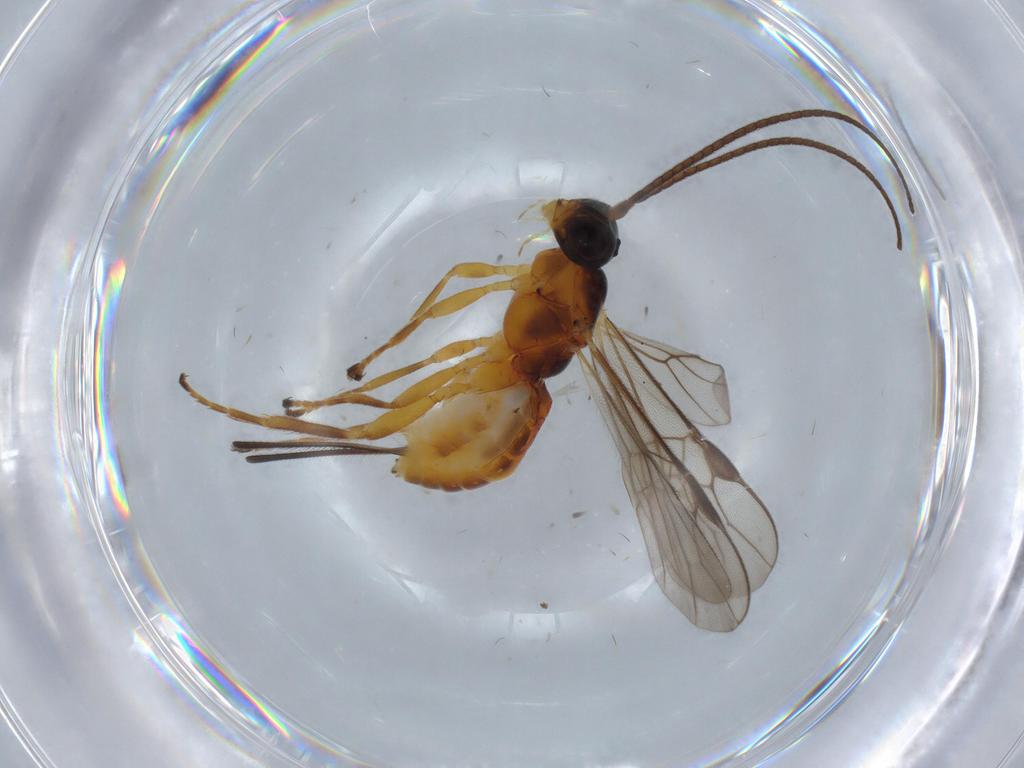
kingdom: Animalia
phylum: Arthropoda
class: Insecta
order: Hymenoptera
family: Braconidae
